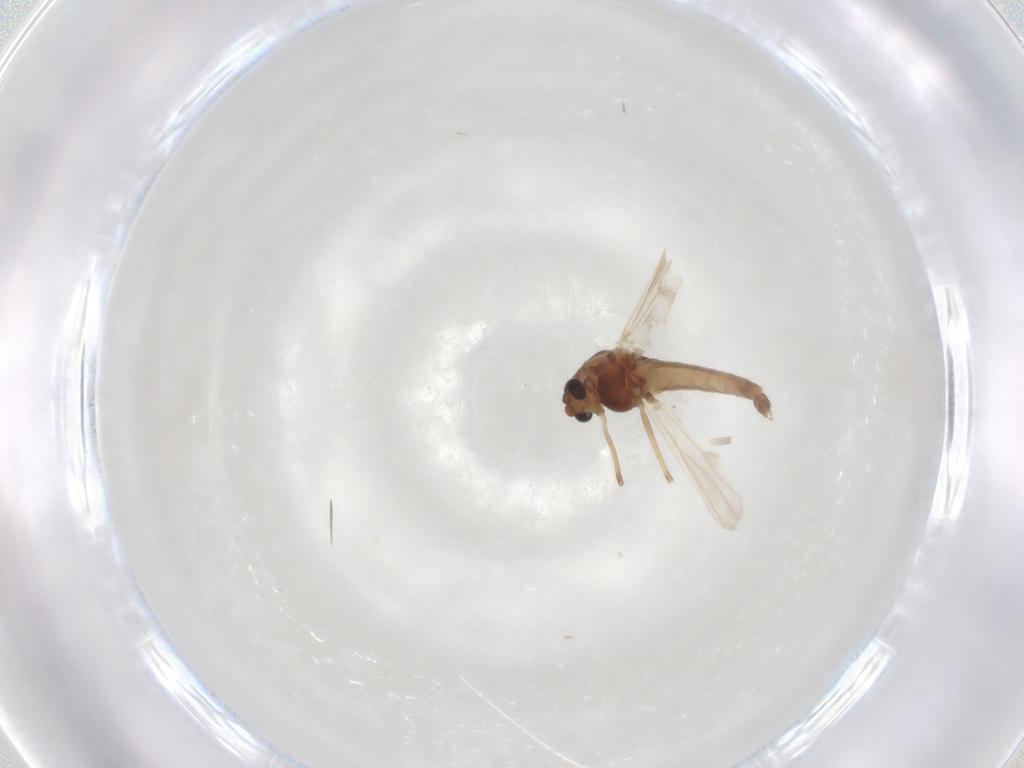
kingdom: Animalia
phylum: Arthropoda
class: Insecta
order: Diptera
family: Chironomidae
